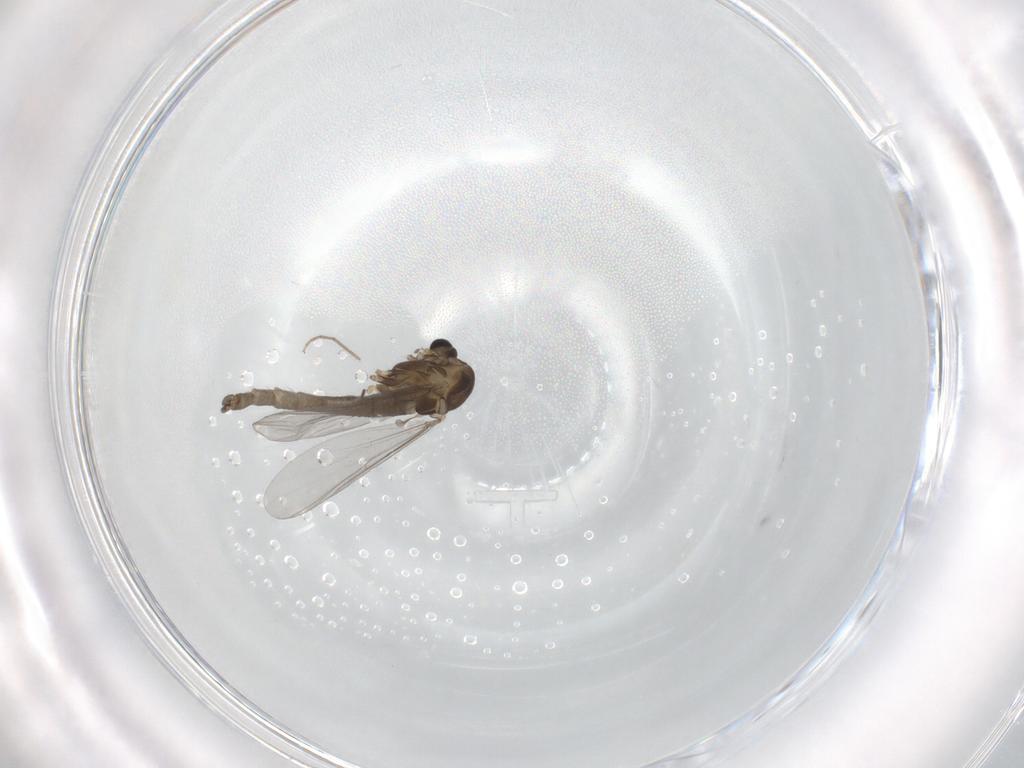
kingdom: Animalia
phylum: Arthropoda
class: Insecta
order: Diptera
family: Chironomidae
